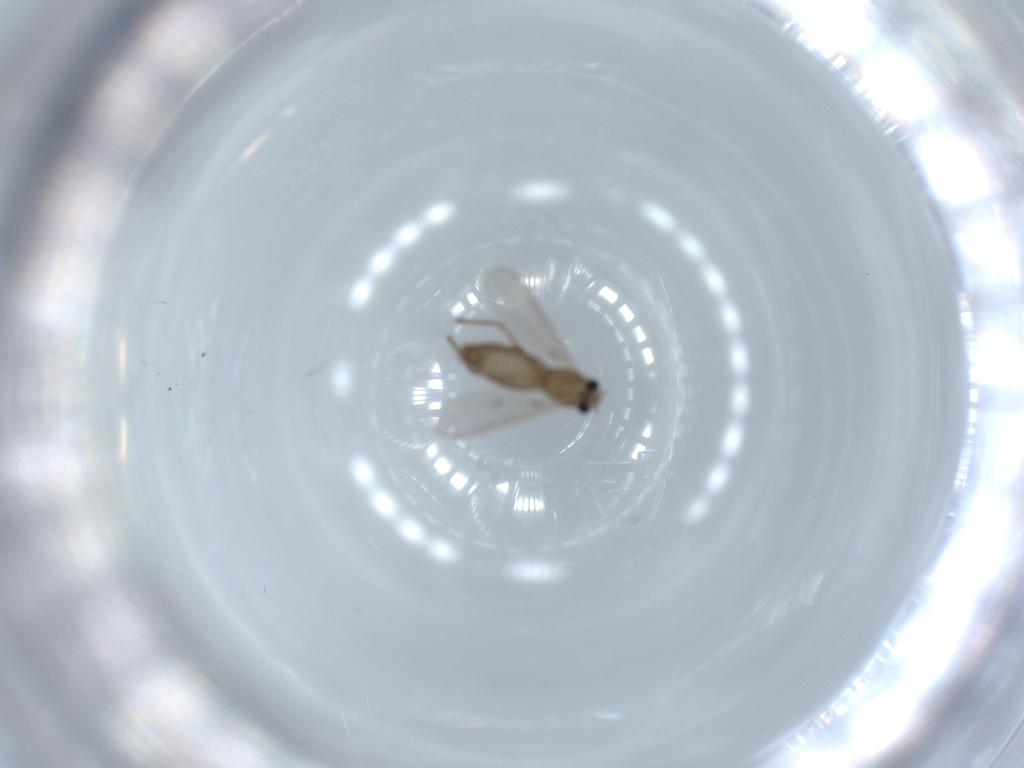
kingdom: Animalia
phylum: Arthropoda
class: Insecta
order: Diptera
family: Chironomidae
